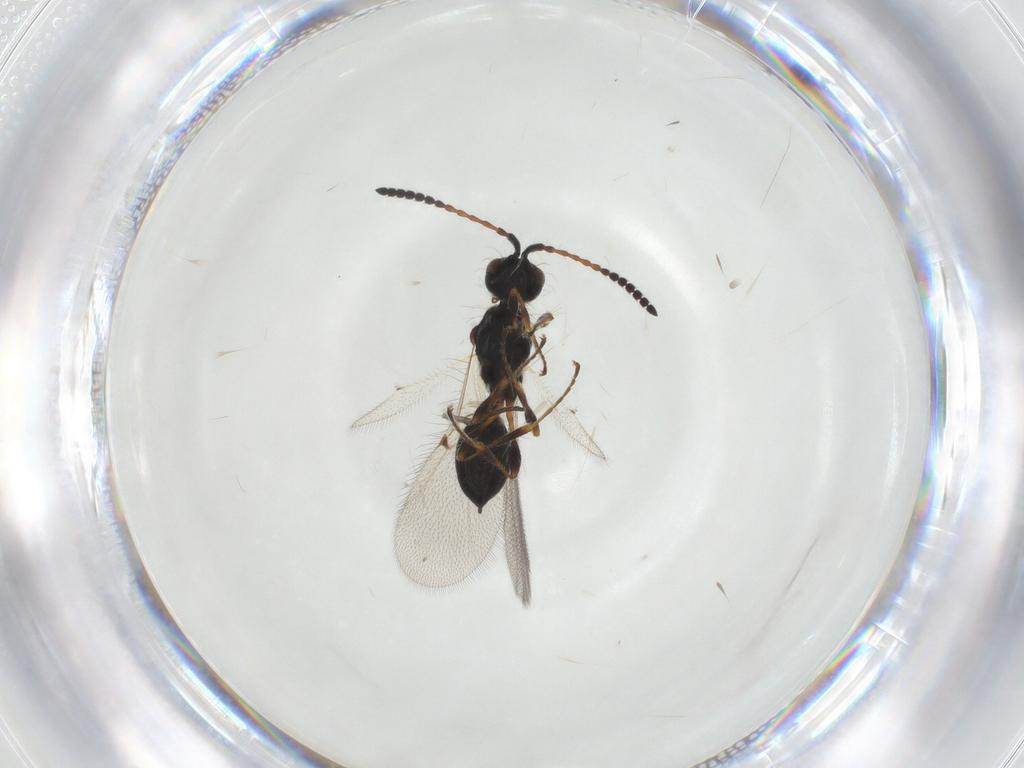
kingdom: Animalia
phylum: Arthropoda
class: Insecta
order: Hymenoptera
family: Diapriidae
